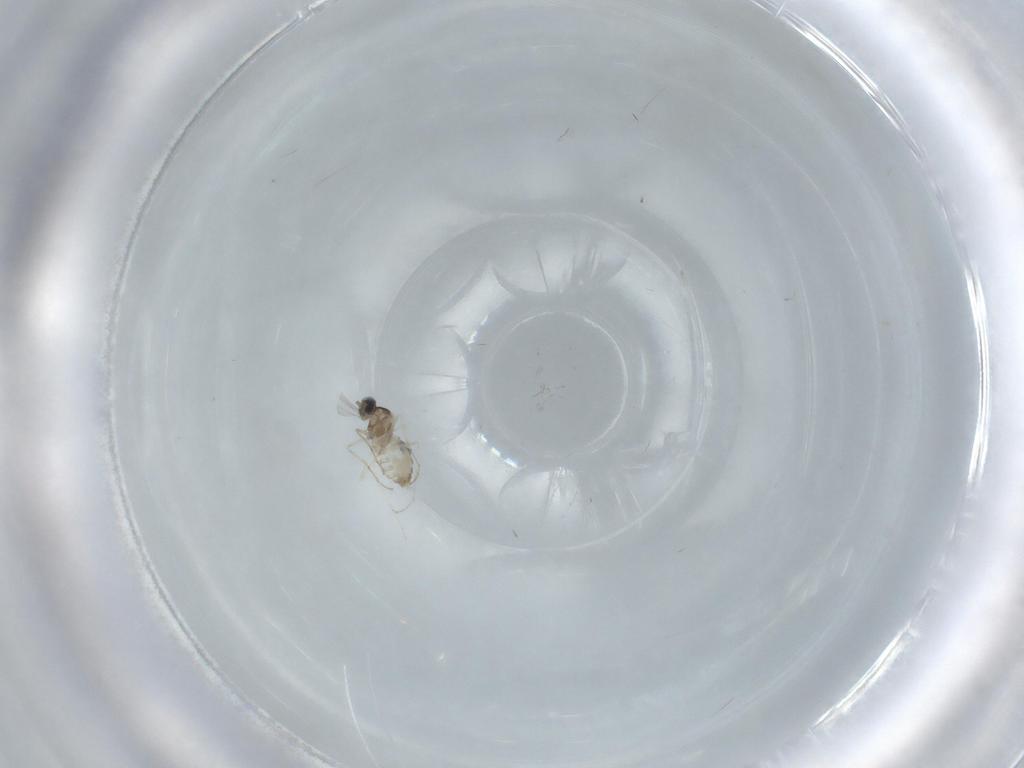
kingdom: Animalia
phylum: Arthropoda
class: Insecta
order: Diptera
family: Cecidomyiidae
